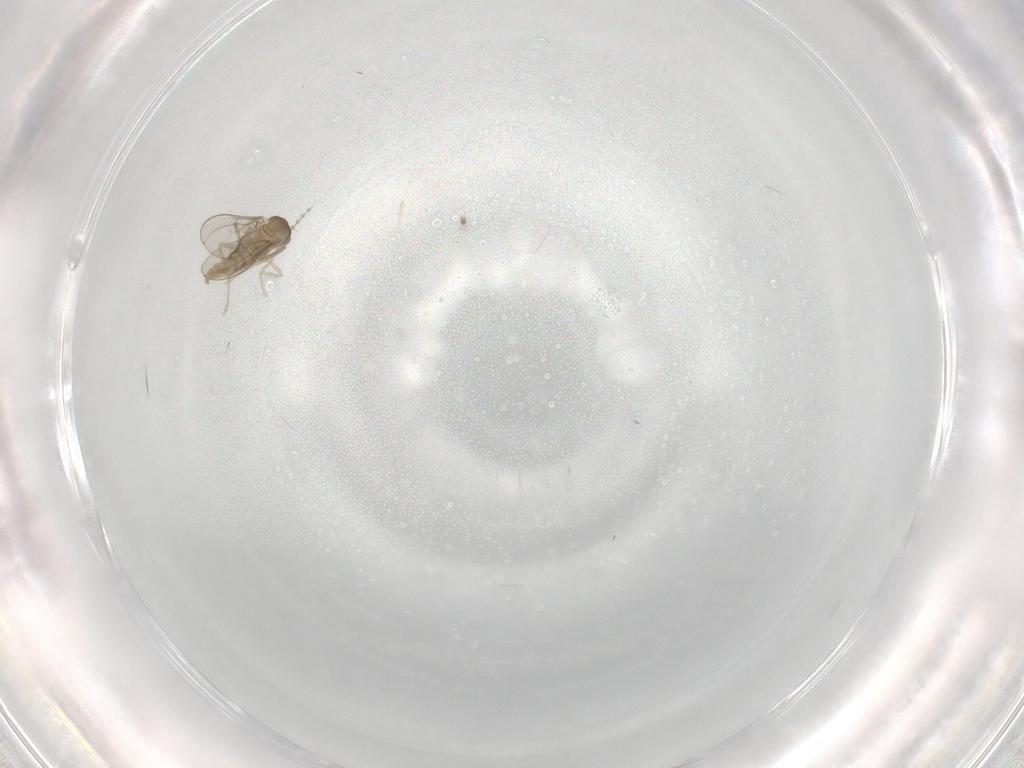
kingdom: Animalia
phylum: Arthropoda
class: Insecta
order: Diptera
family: Cecidomyiidae
